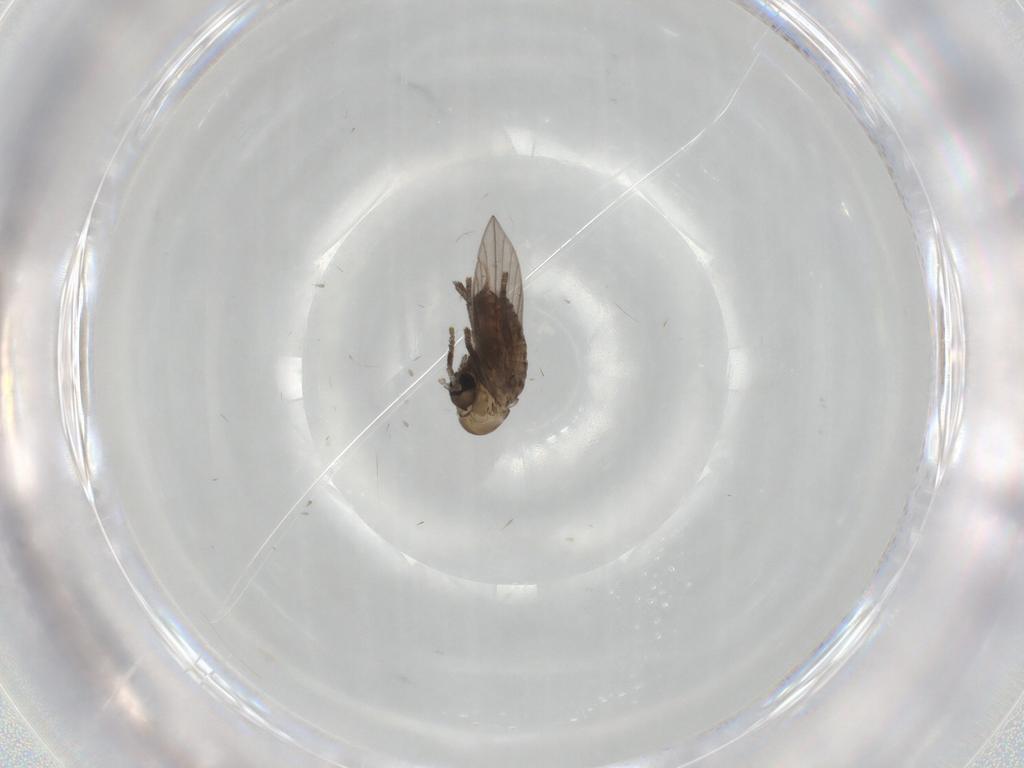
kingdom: Animalia
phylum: Arthropoda
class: Insecta
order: Diptera
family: Psychodidae
